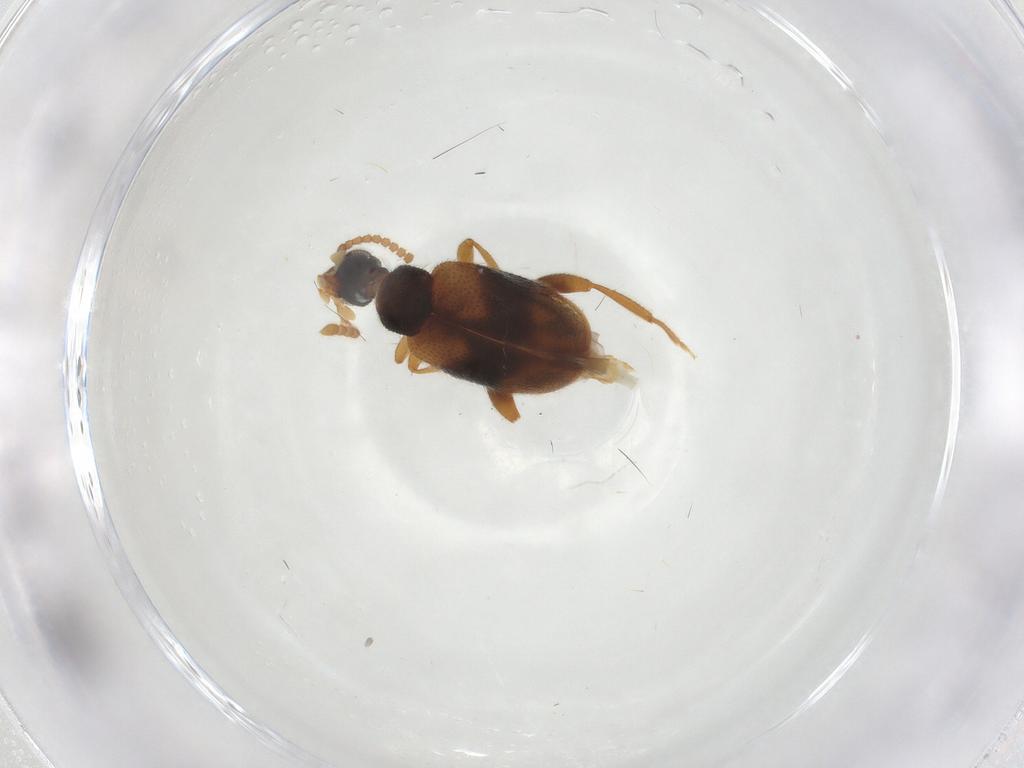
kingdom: Animalia
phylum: Arthropoda
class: Insecta
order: Coleoptera
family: Aderidae
